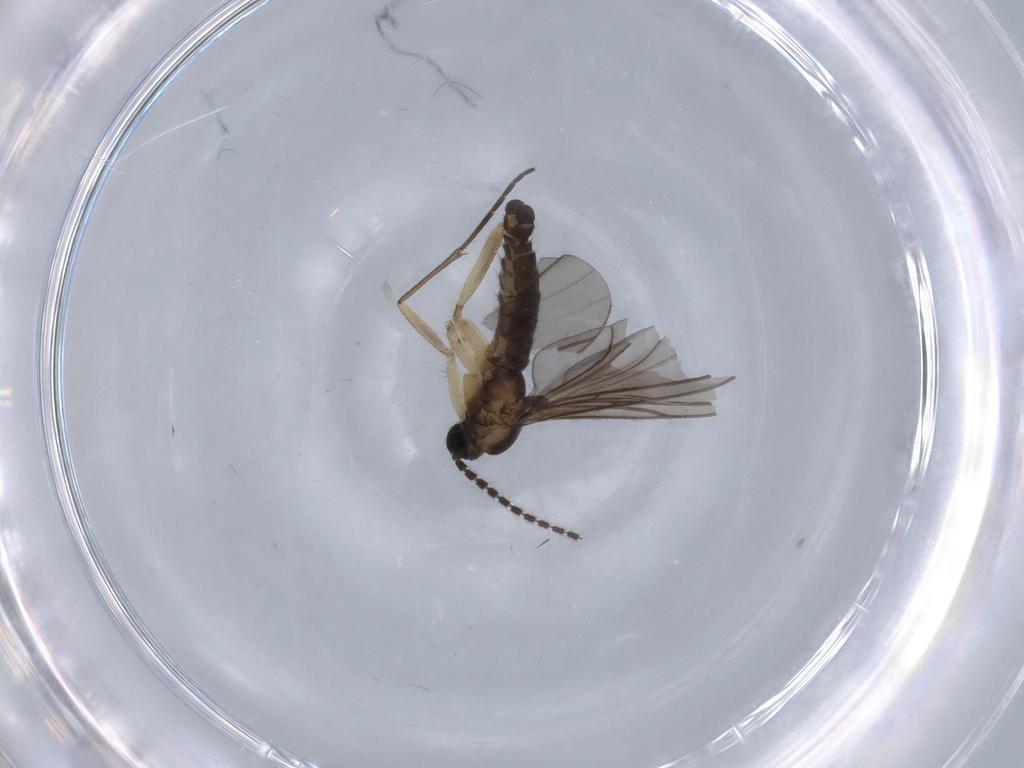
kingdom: Animalia
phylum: Arthropoda
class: Insecta
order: Diptera
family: Sciaridae
